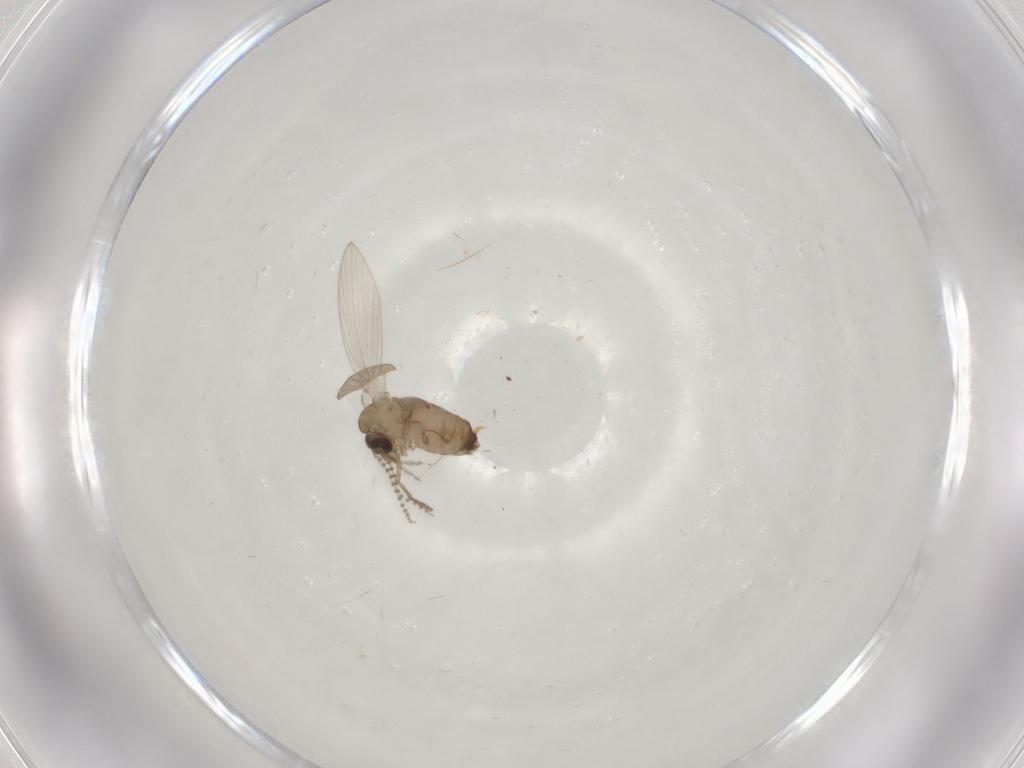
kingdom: Animalia
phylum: Arthropoda
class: Insecta
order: Diptera
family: Psychodidae
